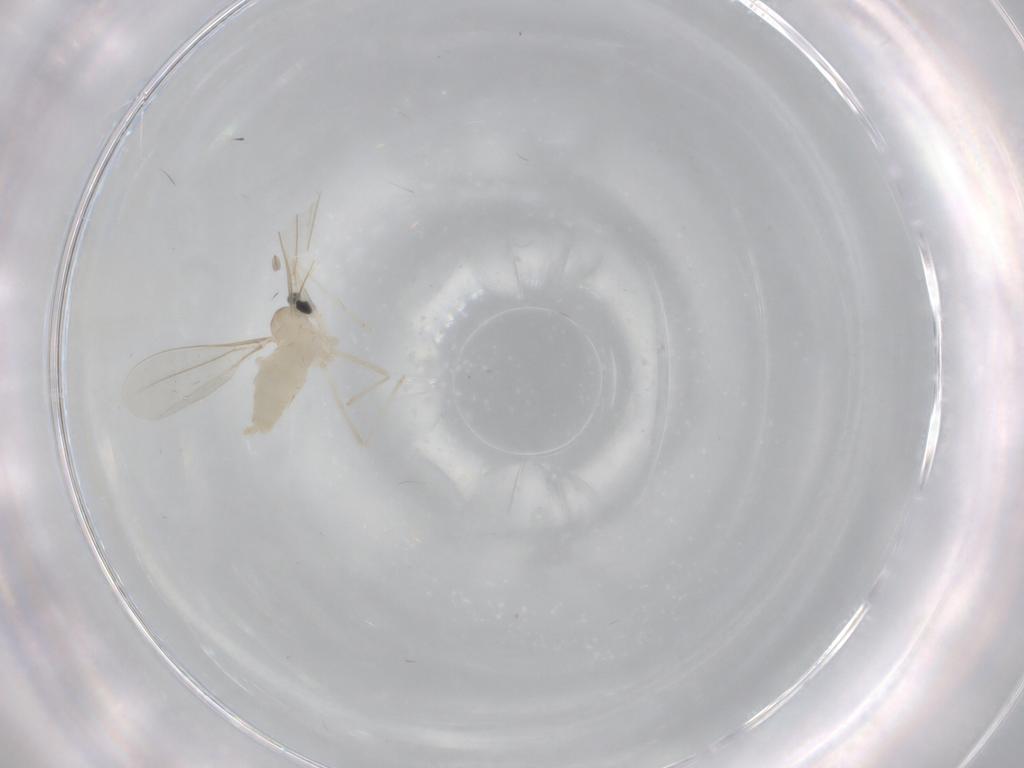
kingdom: Animalia
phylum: Arthropoda
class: Insecta
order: Diptera
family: Cecidomyiidae
